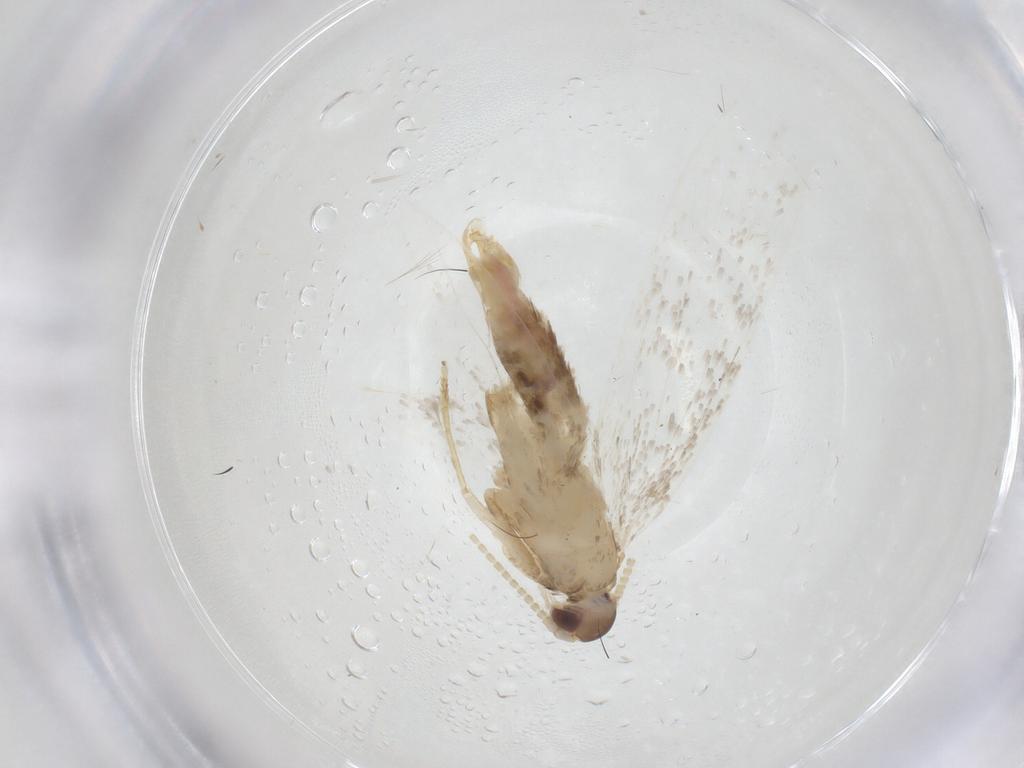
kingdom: Animalia
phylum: Arthropoda
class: Insecta
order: Lepidoptera
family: Lecithoceridae
